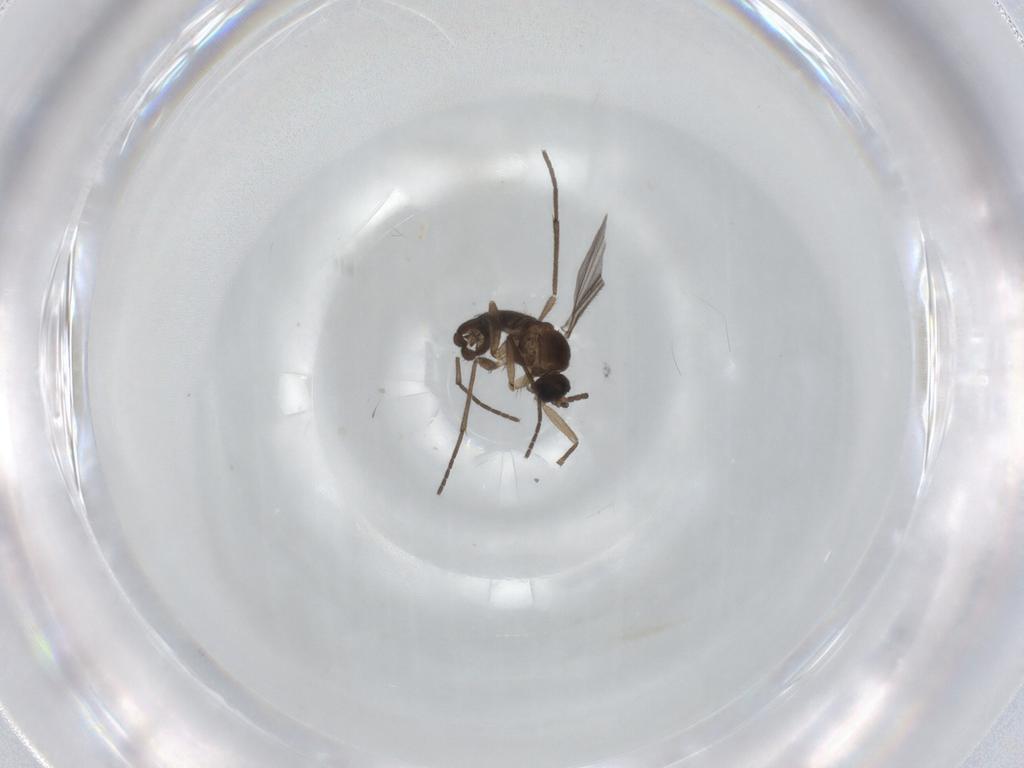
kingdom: Animalia
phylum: Arthropoda
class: Insecta
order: Diptera
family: Sciaridae
